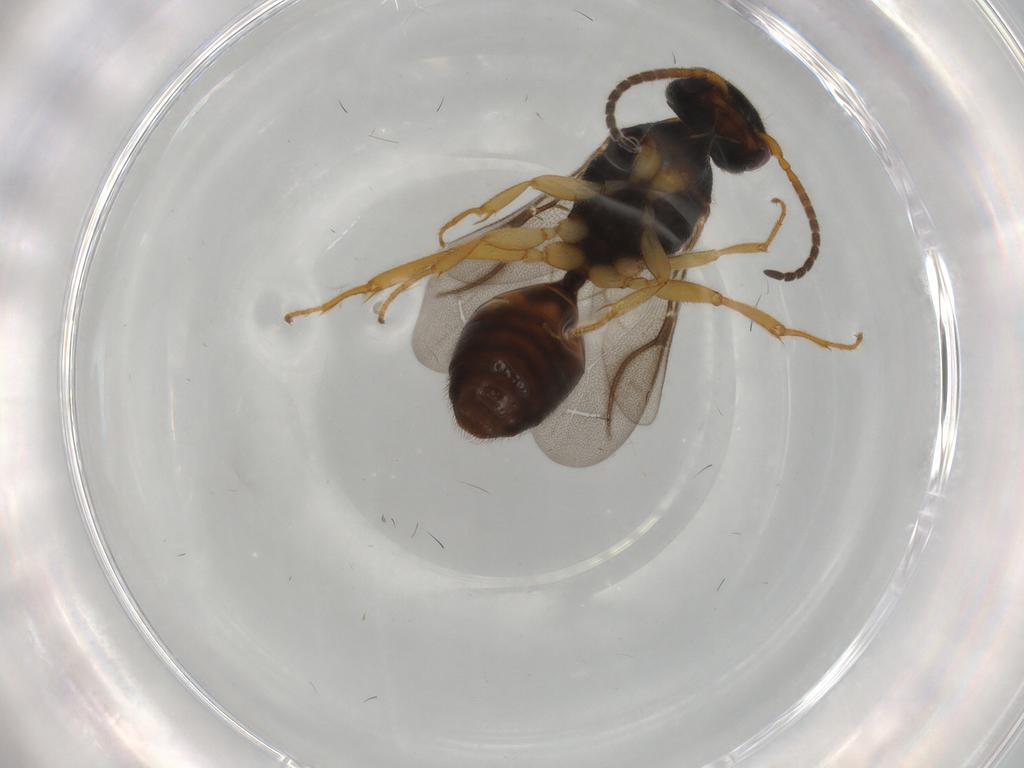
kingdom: Animalia
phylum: Arthropoda
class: Insecta
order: Hymenoptera
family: Bethylidae
